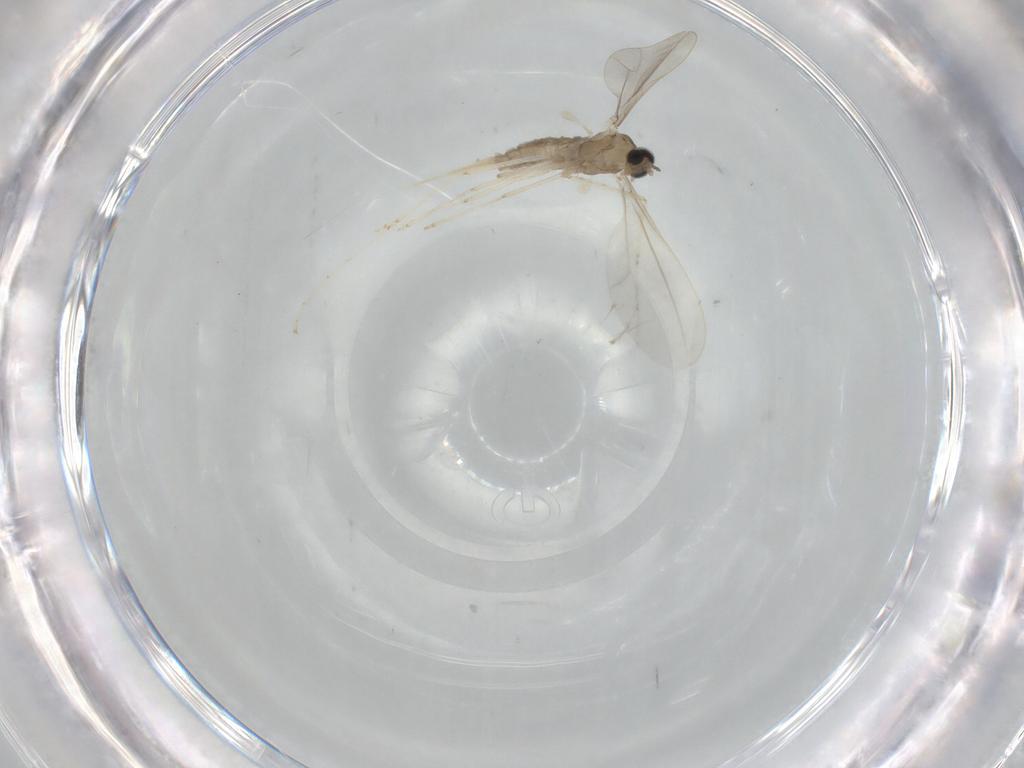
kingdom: Animalia
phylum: Arthropoda
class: Insecta
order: Diptera
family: Cecidomyiidae
